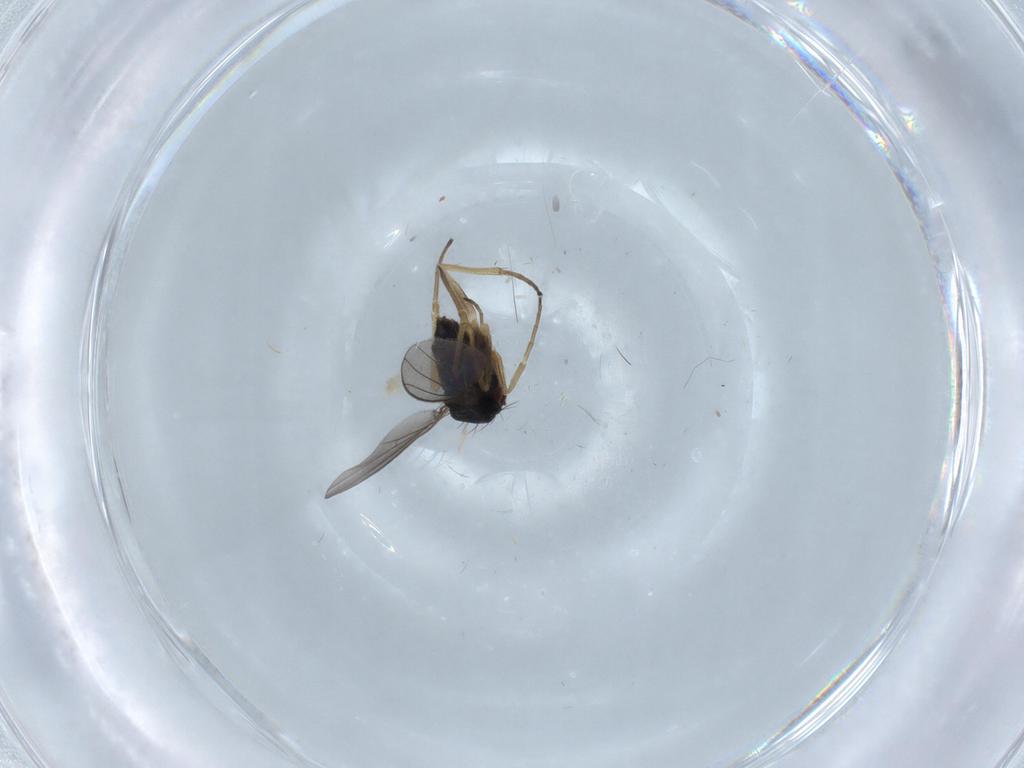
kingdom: Animalia
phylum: Arthropoda
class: Insecta
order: Diptera
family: Dolichopodidae
